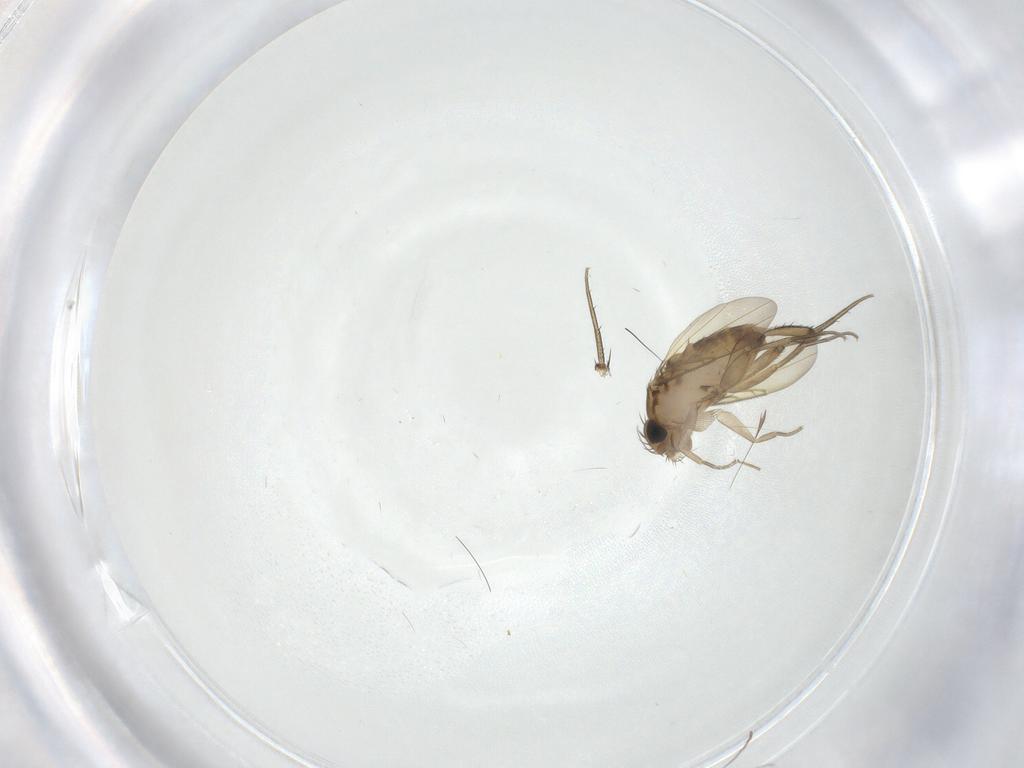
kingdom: Animalia
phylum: Arthropoda
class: Insecta
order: Diptera
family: Phoridae
